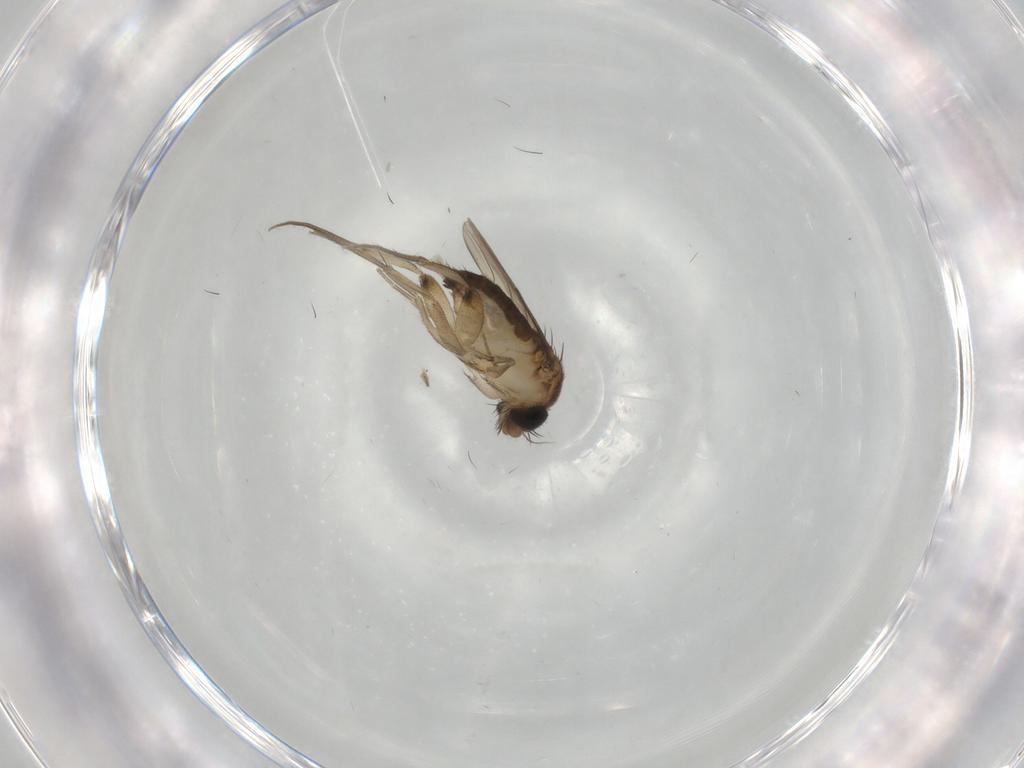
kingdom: Animalia
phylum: Arthropoda
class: Insecta
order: Diptera
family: Phoridae
